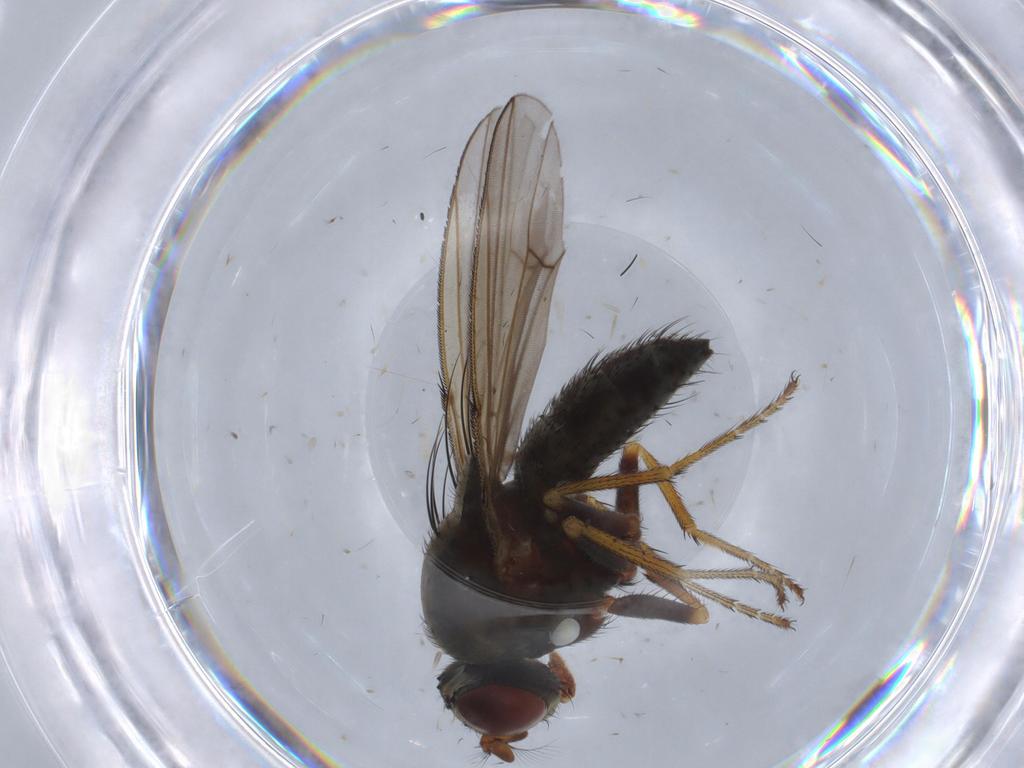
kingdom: Animalia
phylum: Arthropoda
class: Insecta
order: Diptera
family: Ephydridae
